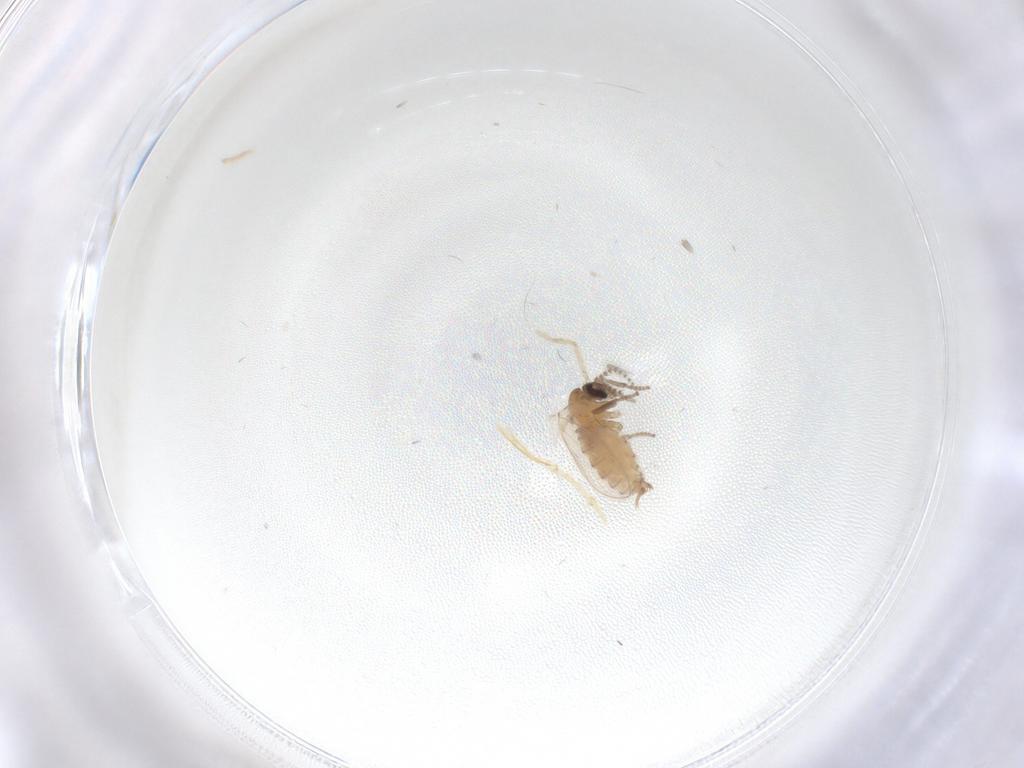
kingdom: Animalia
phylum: Arthropoda
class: Insecta
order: Diptera
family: Psychodidae
